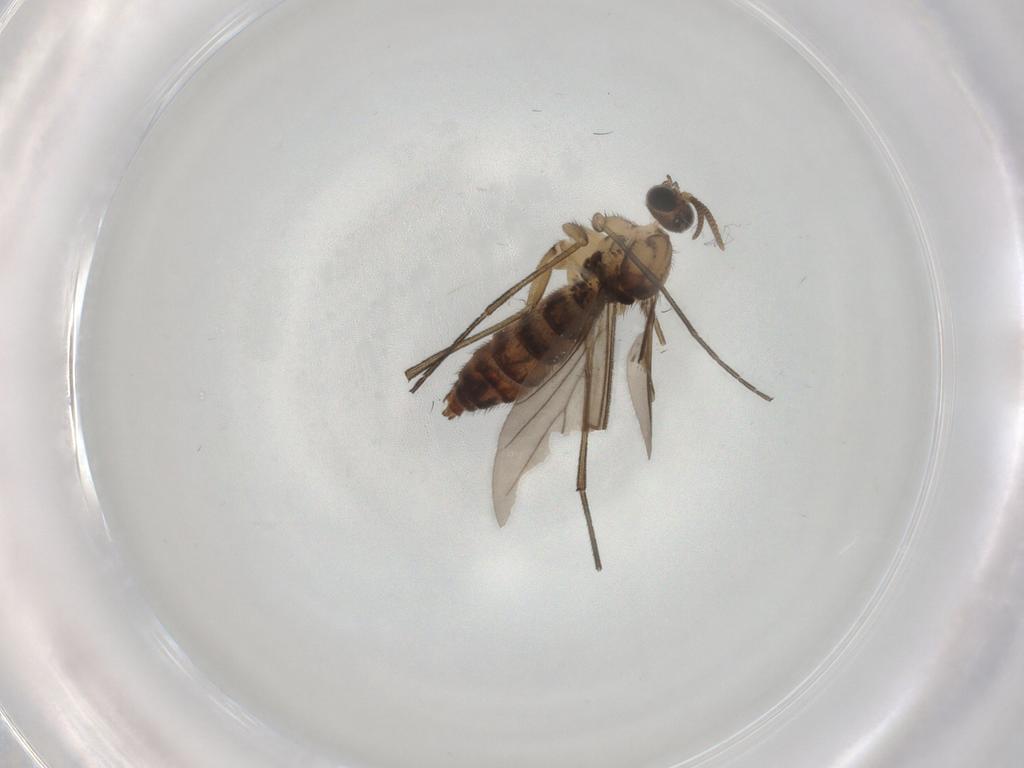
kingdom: Animalia
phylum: Arthropoda
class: Insecta
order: Diptera
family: Keroplatidae
